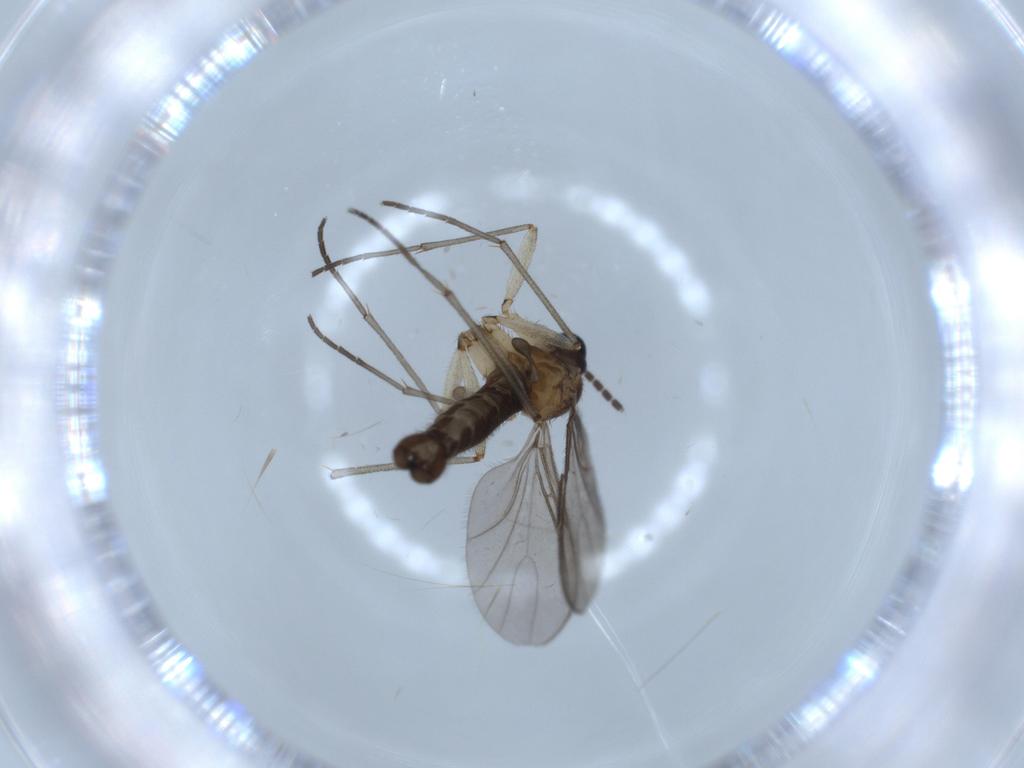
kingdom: Animalia
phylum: Arthropoda
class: Insecta
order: Diptera
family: Sciaridae
